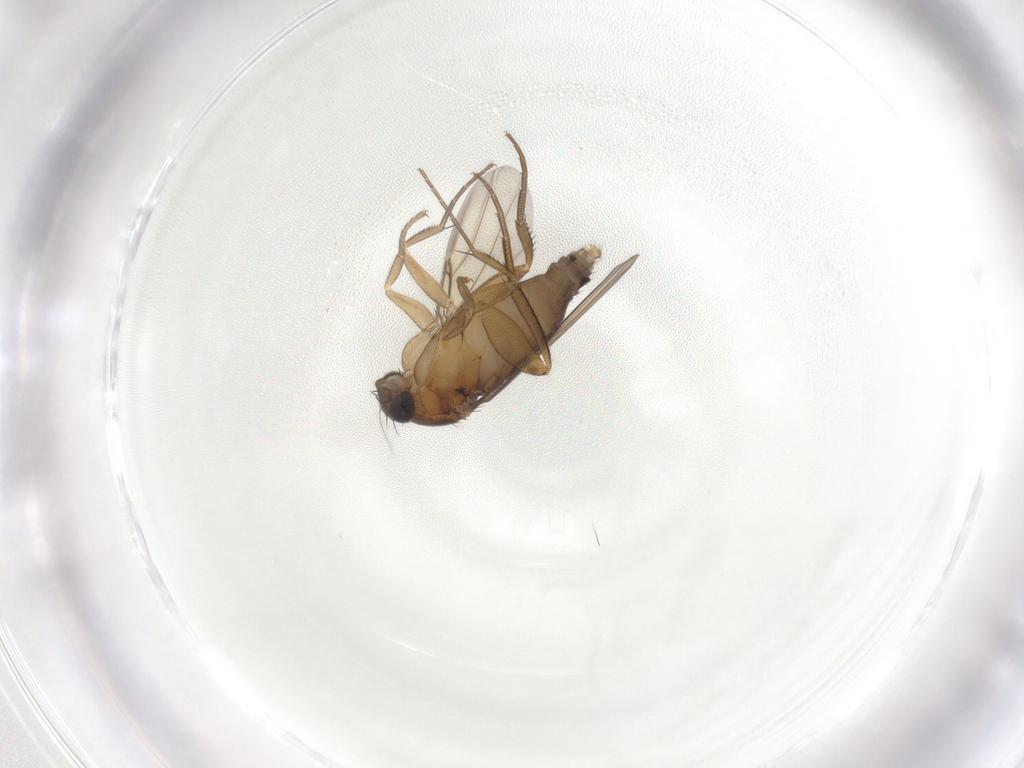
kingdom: Animalia
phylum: Arthropoda
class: Insecta
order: Diptera
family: Phoridae
